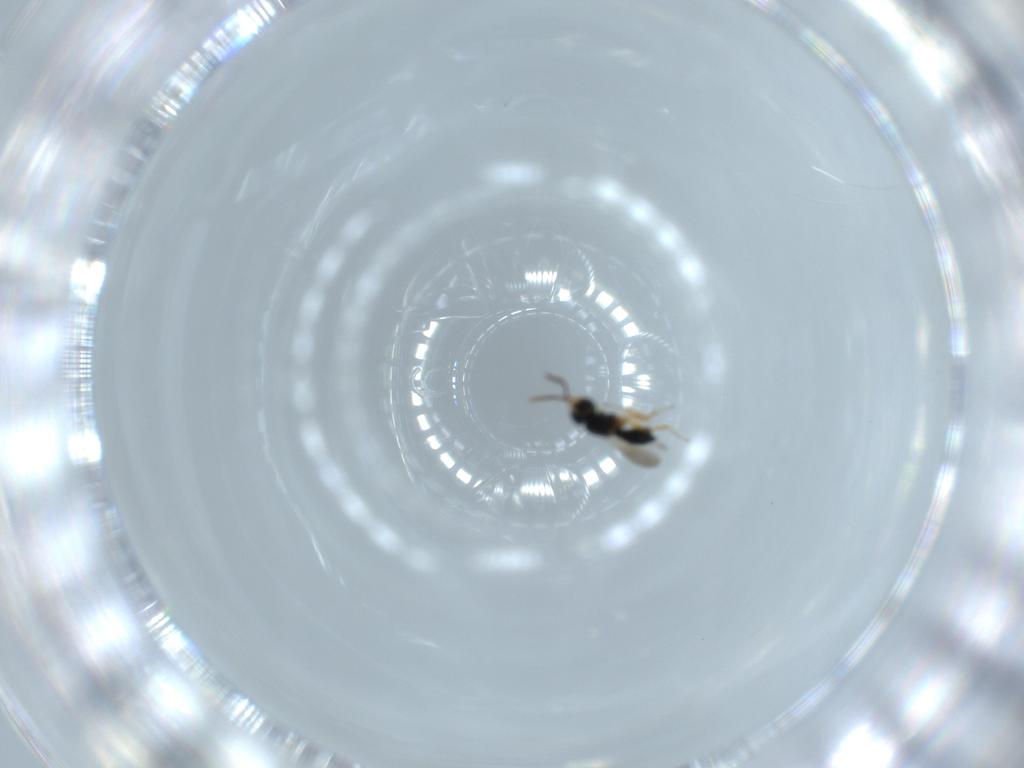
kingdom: Animalia
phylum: Arthropoda
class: Insecta
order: Hymenoptera
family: Scelionidae
